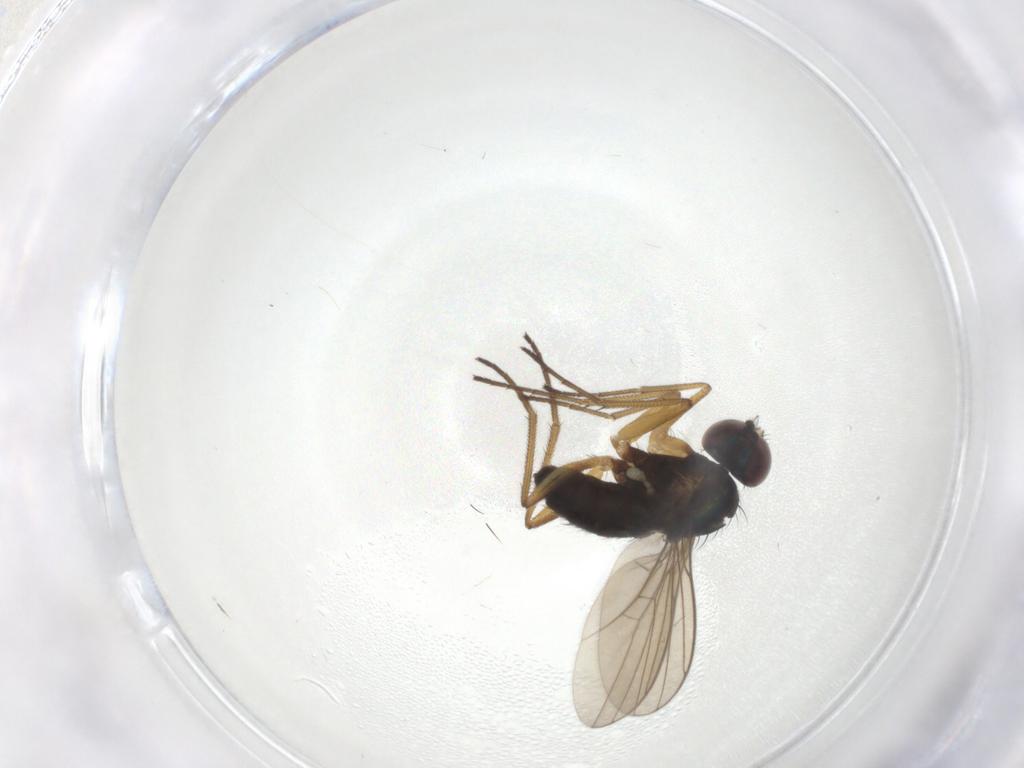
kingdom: Animalia
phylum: Arthropoda
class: Insecta
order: Diptera
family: Dolichopodidae
